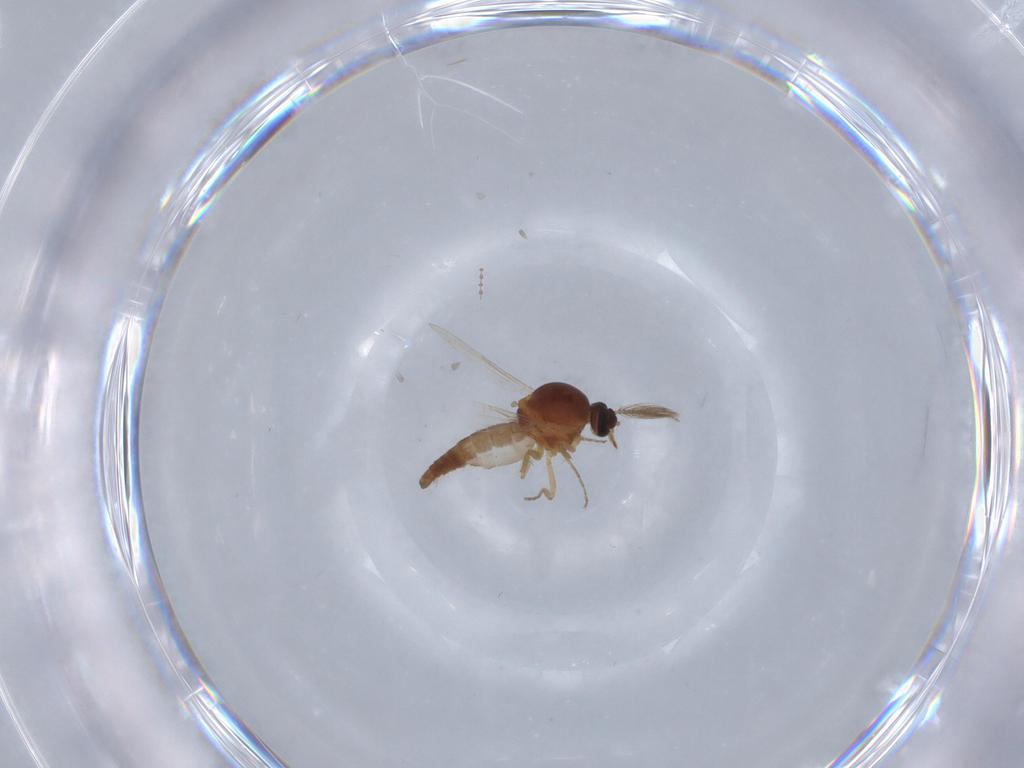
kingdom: Animalia
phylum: Arthropoda
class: Insecta
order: Diptera
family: Ceratopogonidae
